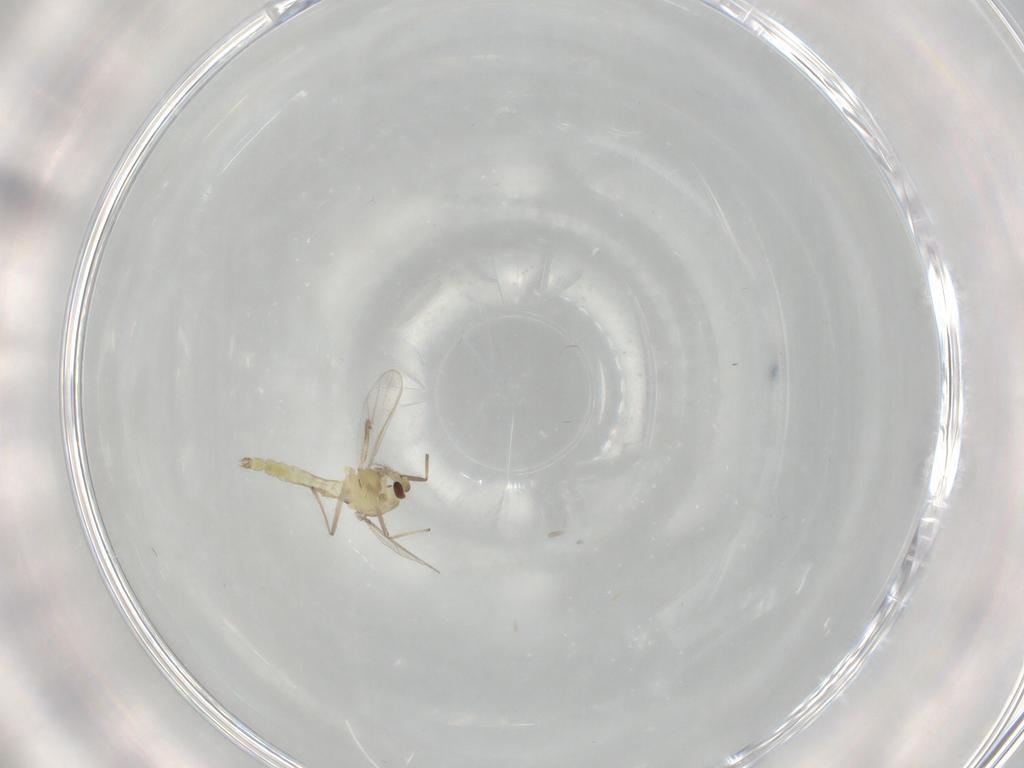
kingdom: Animalia
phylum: Arthropoda
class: Insecta
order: Diptera
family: Chironomidae
